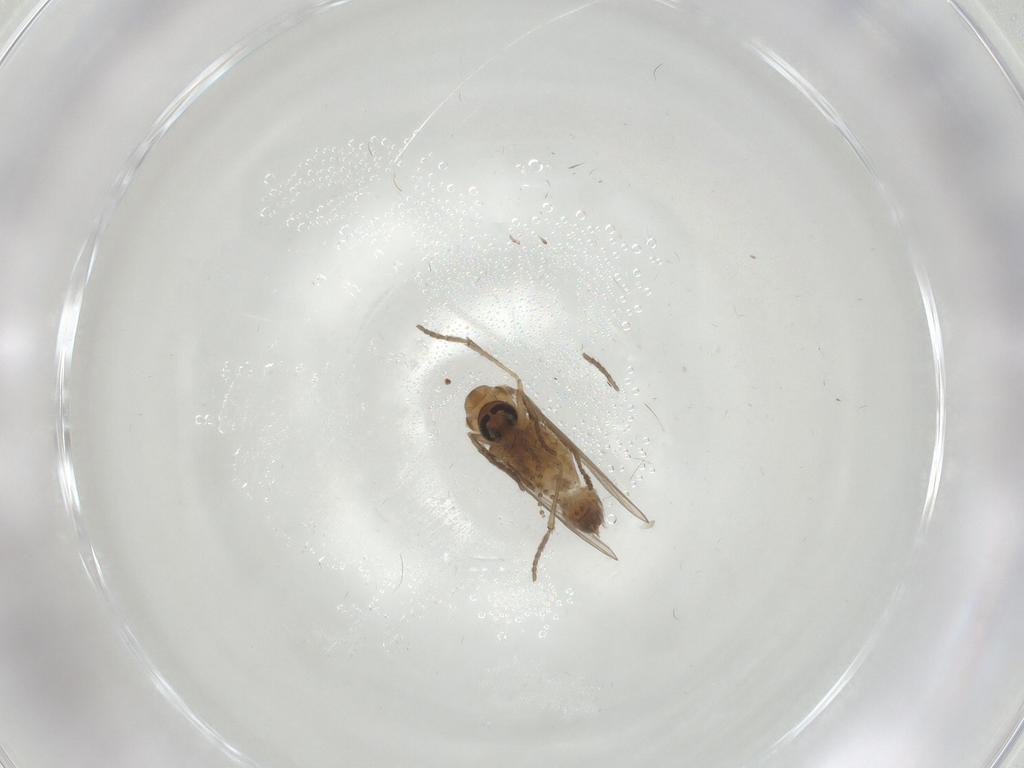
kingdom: Animalia
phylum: Arthropoda
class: Insecta
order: Diptera
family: Psychodidae
